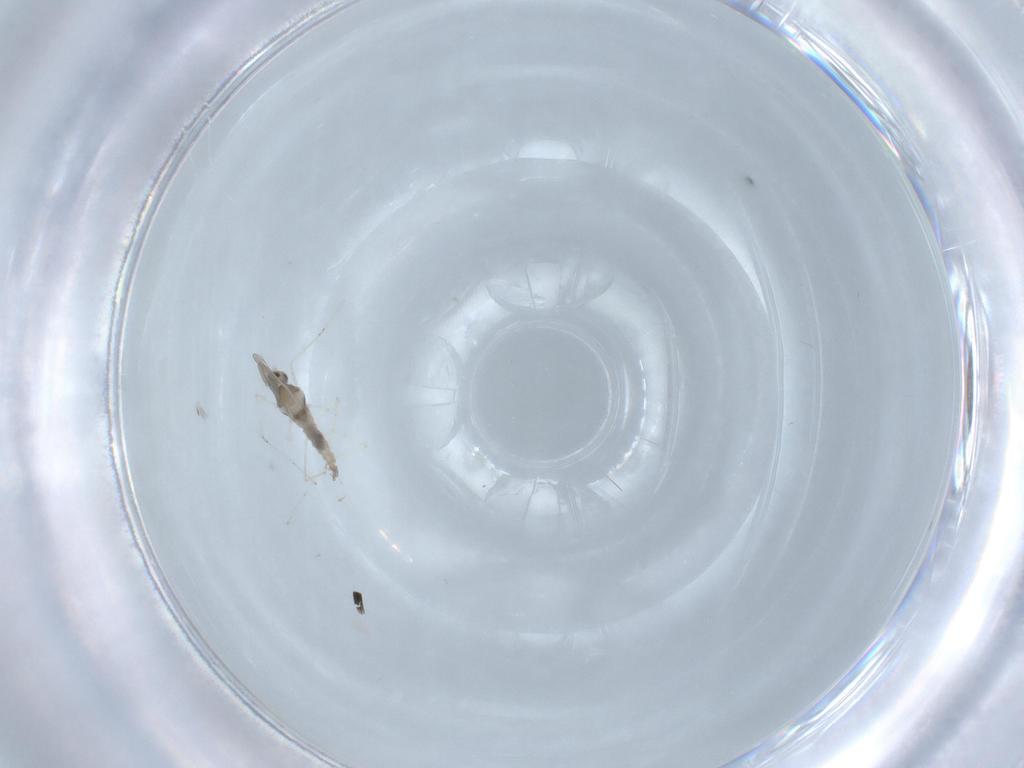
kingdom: Animalia
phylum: Arthropoda
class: Insecta
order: Diptera
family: Cecidomyiidae
